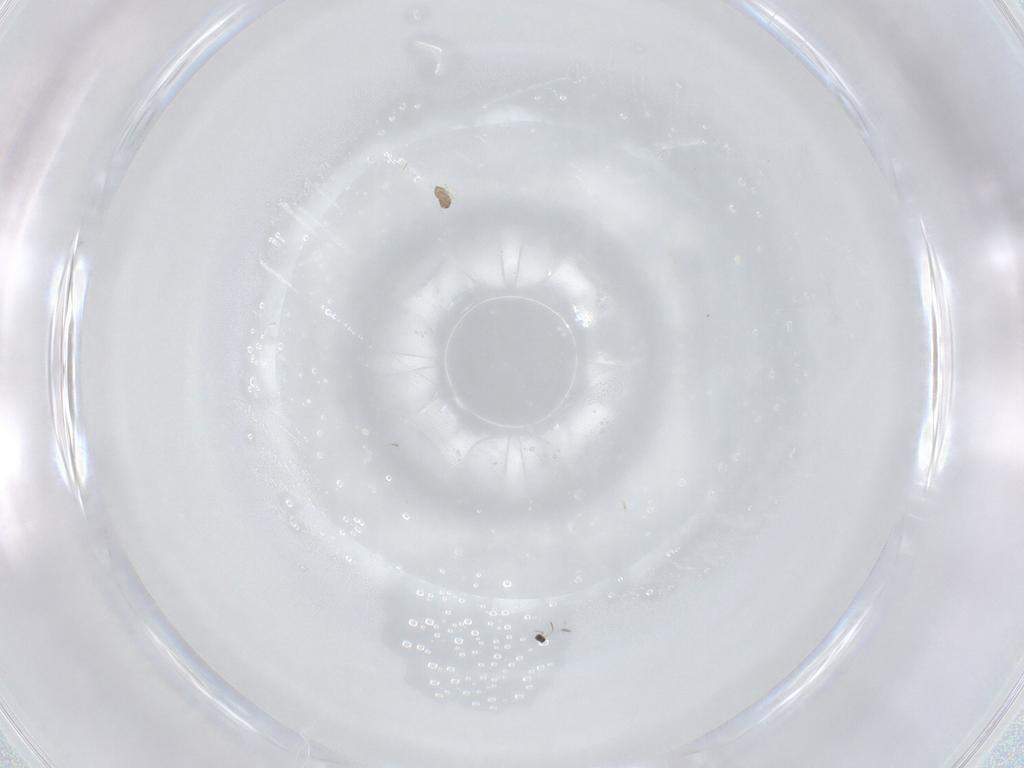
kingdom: Animalia
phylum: Arthropoda
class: Insecta
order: Hymenoptera
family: Mymaridae
